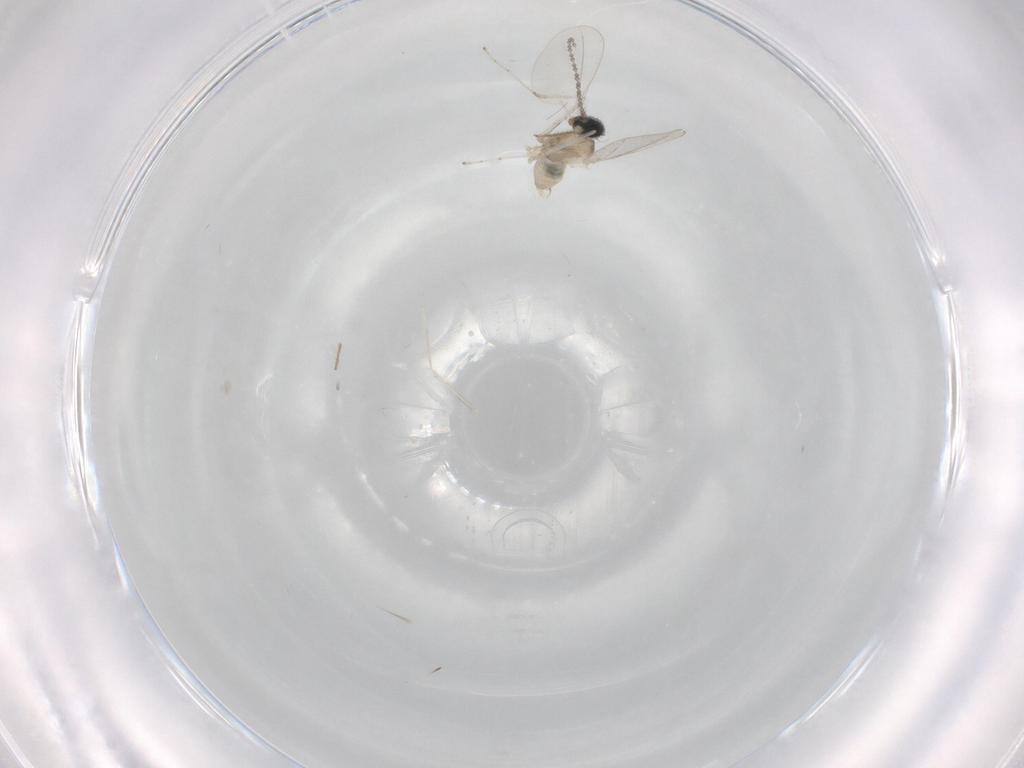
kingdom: Animalia
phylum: Arthropoda
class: Insecta
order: Diptera
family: Cecidomyiidae
